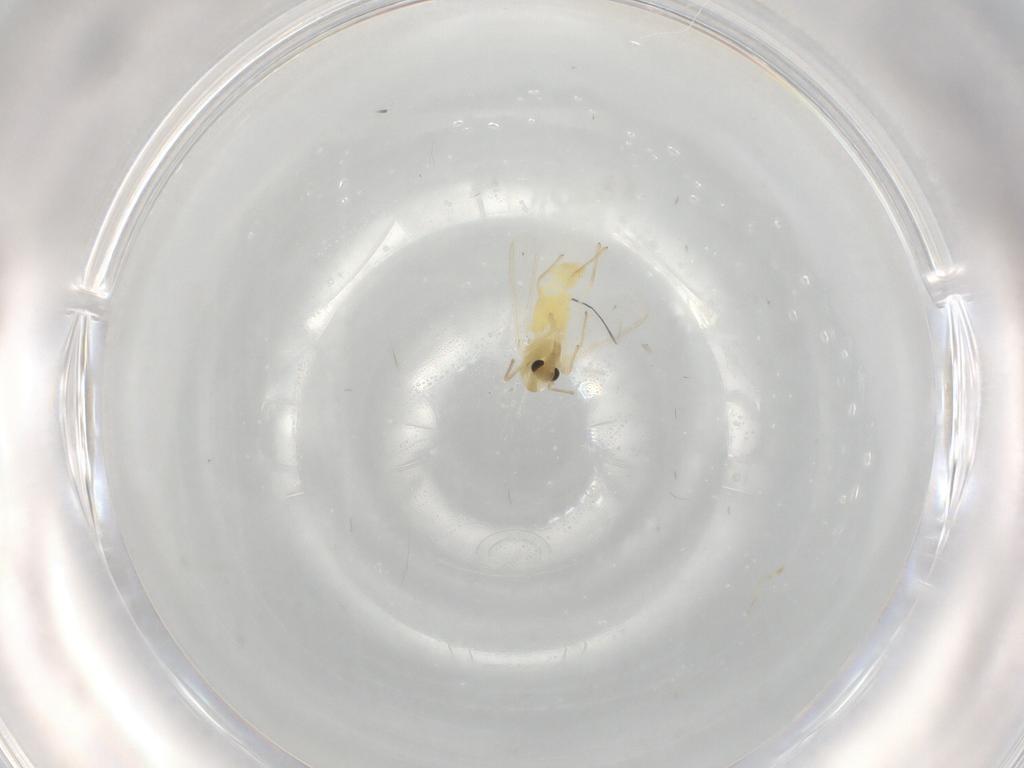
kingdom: Animalia
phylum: Arthropoda
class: Insecta
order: Diptera
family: Chironomidae
